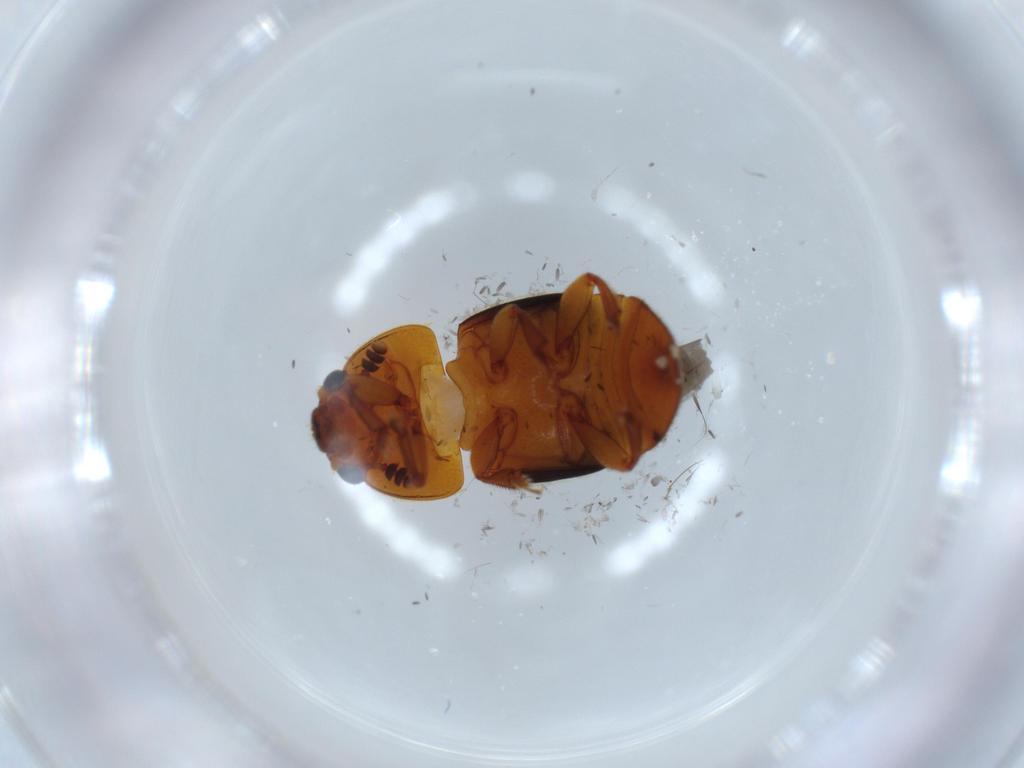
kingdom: Animalia
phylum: Arthropoda
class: Insecta
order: Coleoptera
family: Nitidulidae
